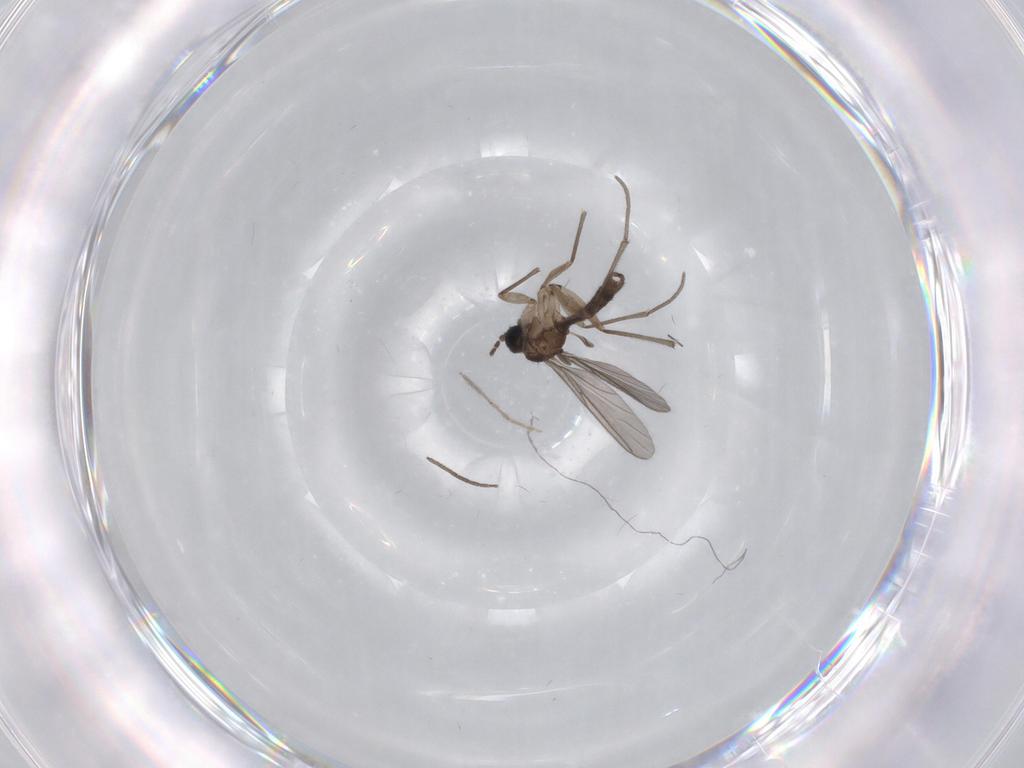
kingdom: Animalia
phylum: Arthropoda
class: Insecta
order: Diptera
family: Sciaridae
